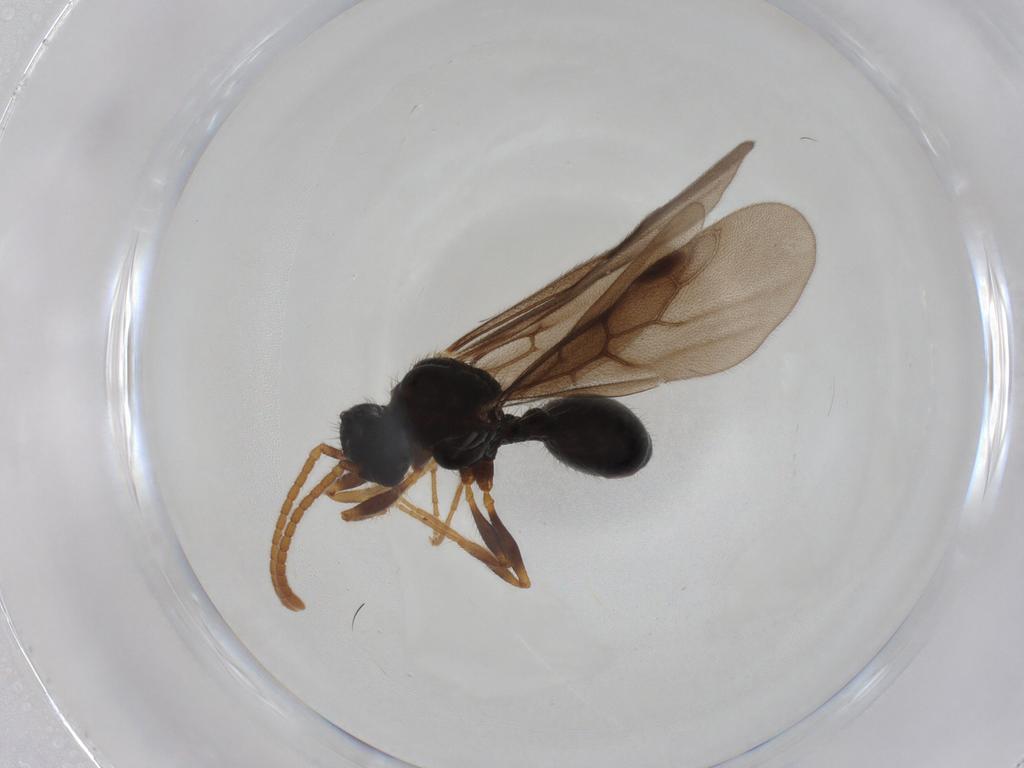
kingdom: Animalia
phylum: Arthropoda
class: Insecta
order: Hymenoptera
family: Formicidae
